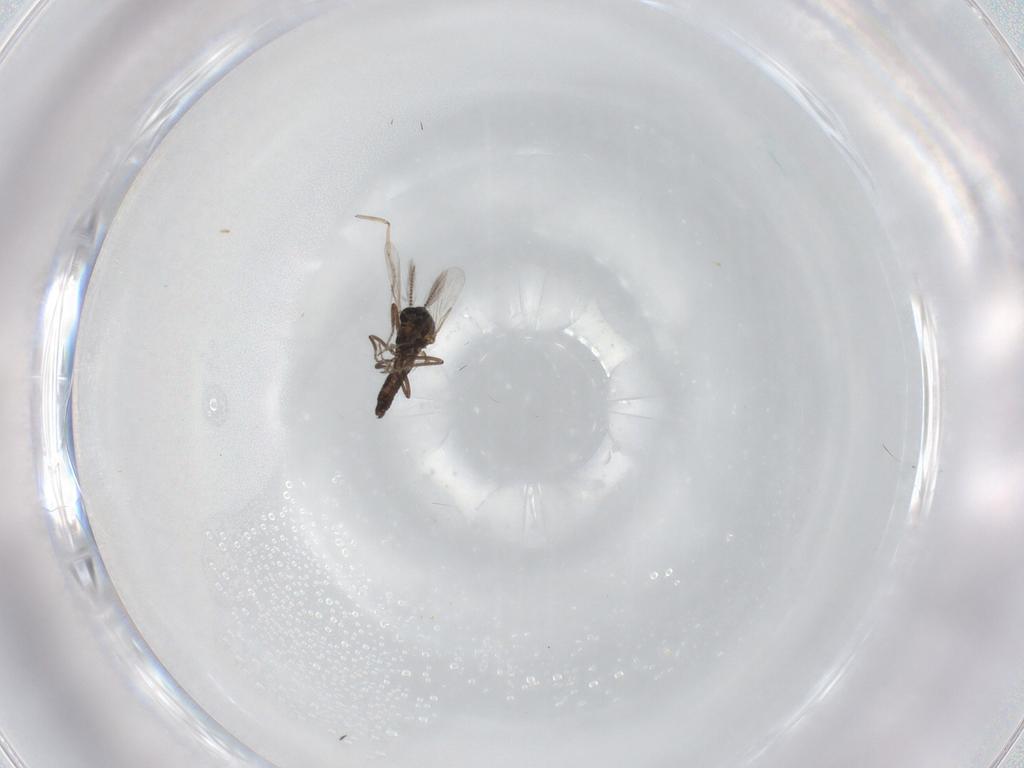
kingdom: Animalia
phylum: Arthropoda
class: Insecta
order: Diptera
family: Ceratopogonidae
